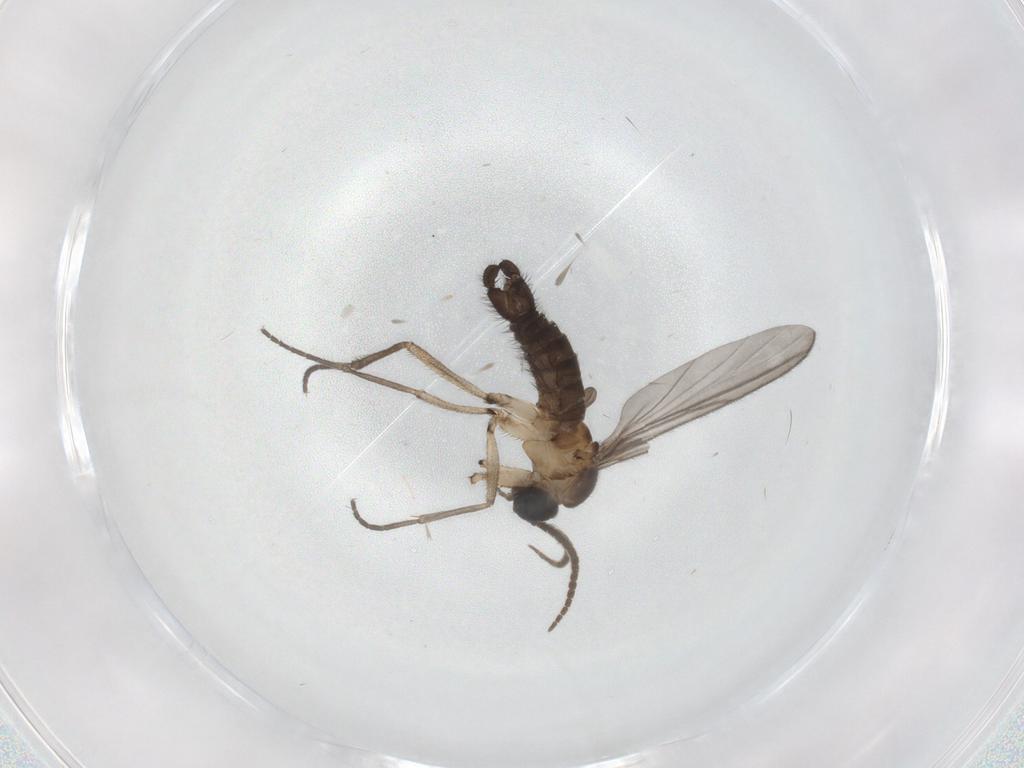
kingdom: Animalia
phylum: Arthropoda
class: Insecta
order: Diptera
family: Sciaridae
